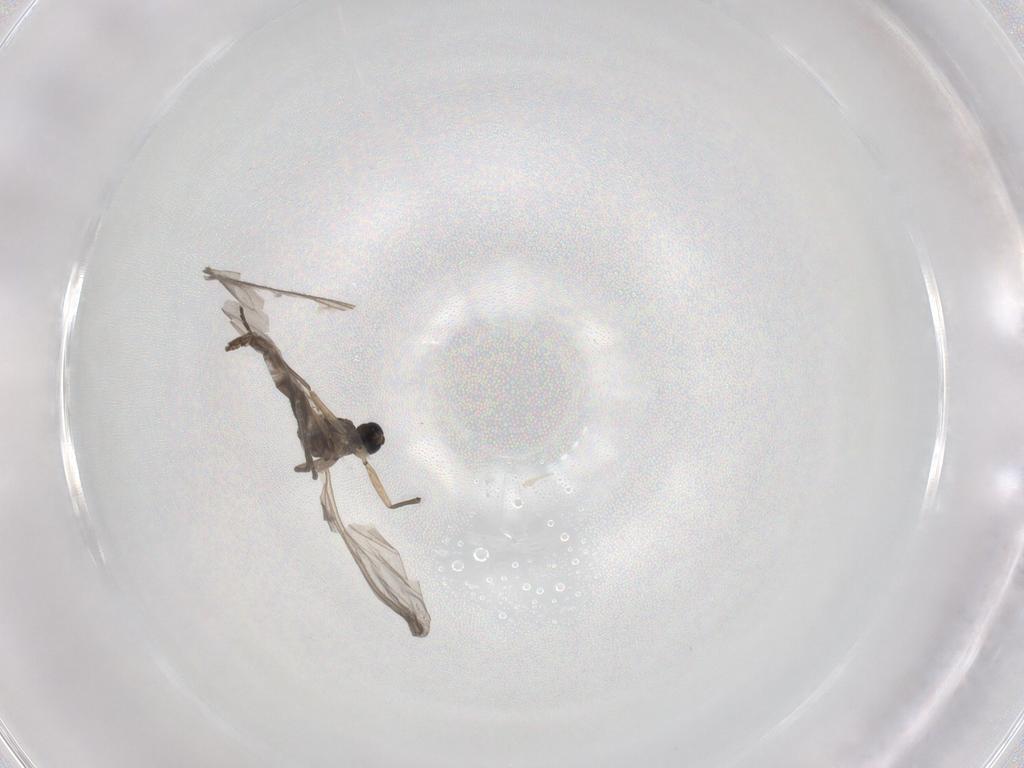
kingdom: Animalia
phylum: Arthropoda
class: Insecta
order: Diptera
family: Sciaridae
